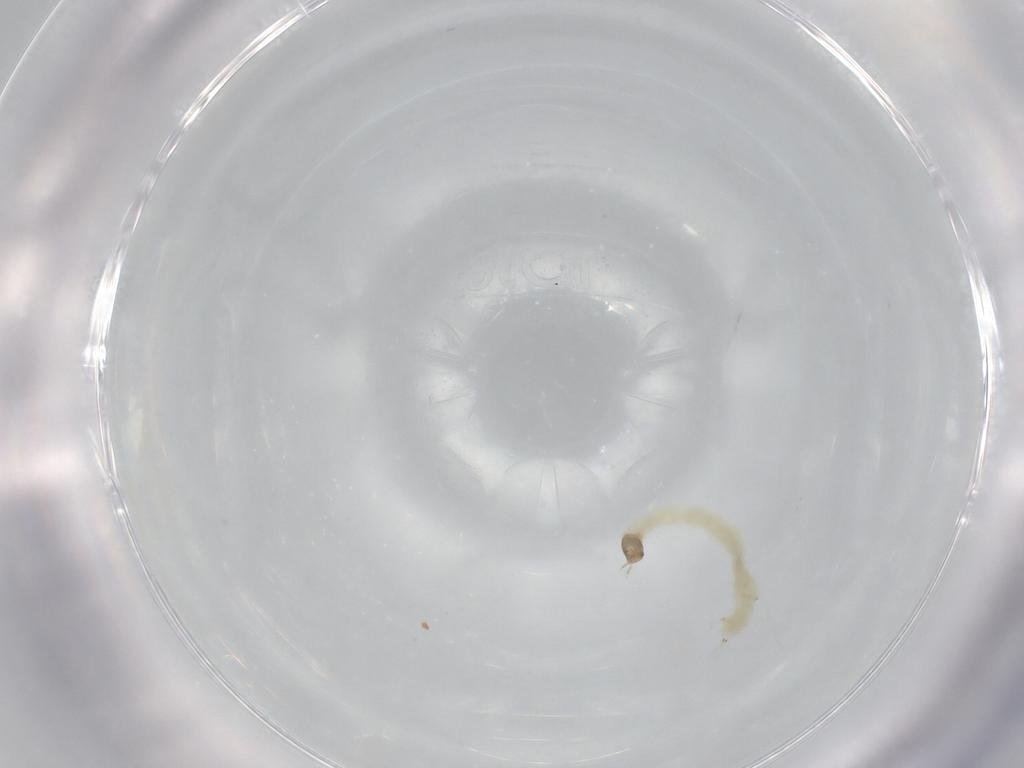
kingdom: Animalia
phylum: Arthropoda
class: Insecta
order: Diptera
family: Chironomidae
